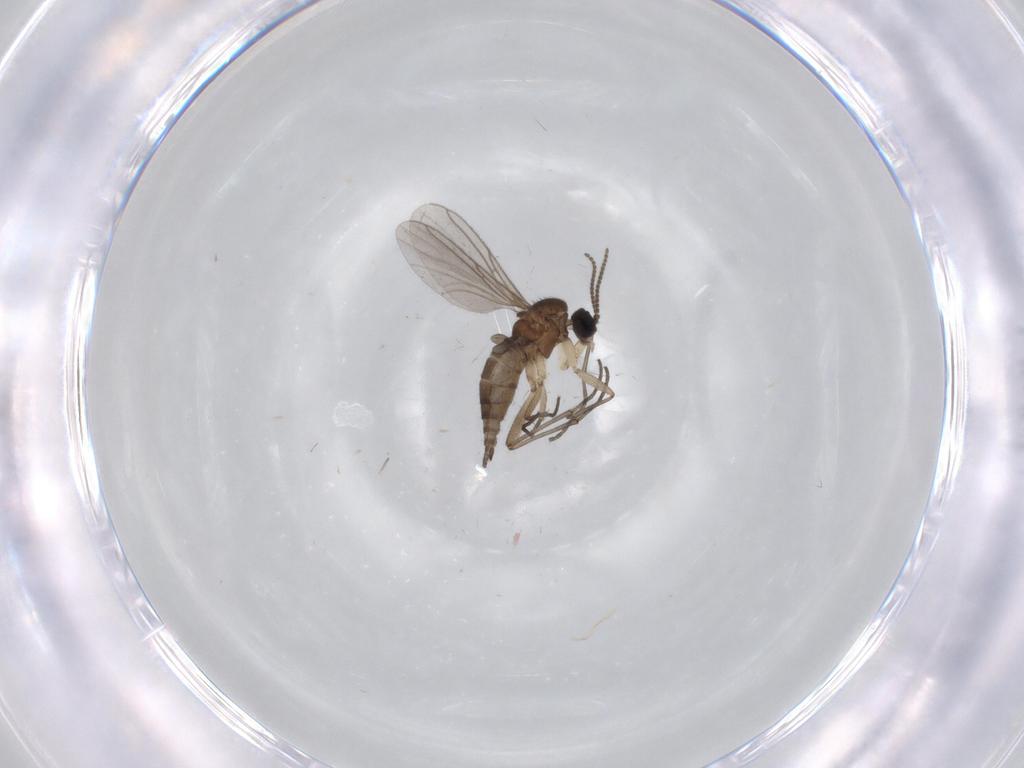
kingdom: Animalia
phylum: Arthropoda
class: Insecta
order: Diptera
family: Sciaridae
